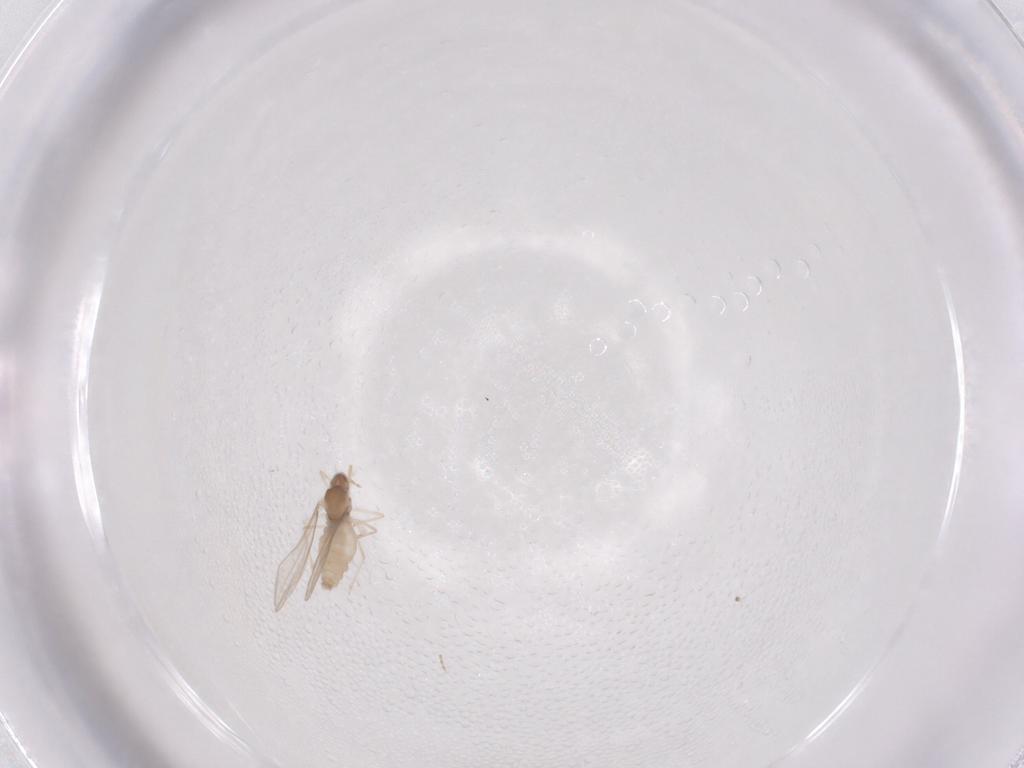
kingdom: Animalia
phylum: Arthropoda
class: Insecta
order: Diptera
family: Cecidomyiidae
